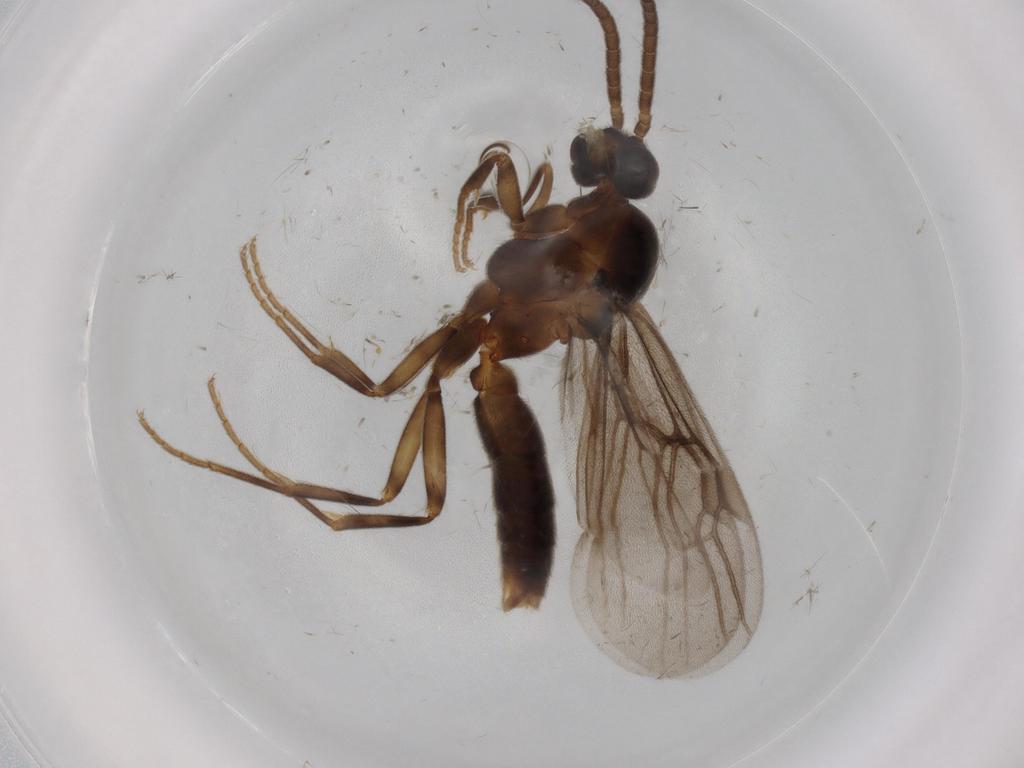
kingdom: Animalia
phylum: Arthropoda
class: Insecta
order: Hymenoptera
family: Formicidae
